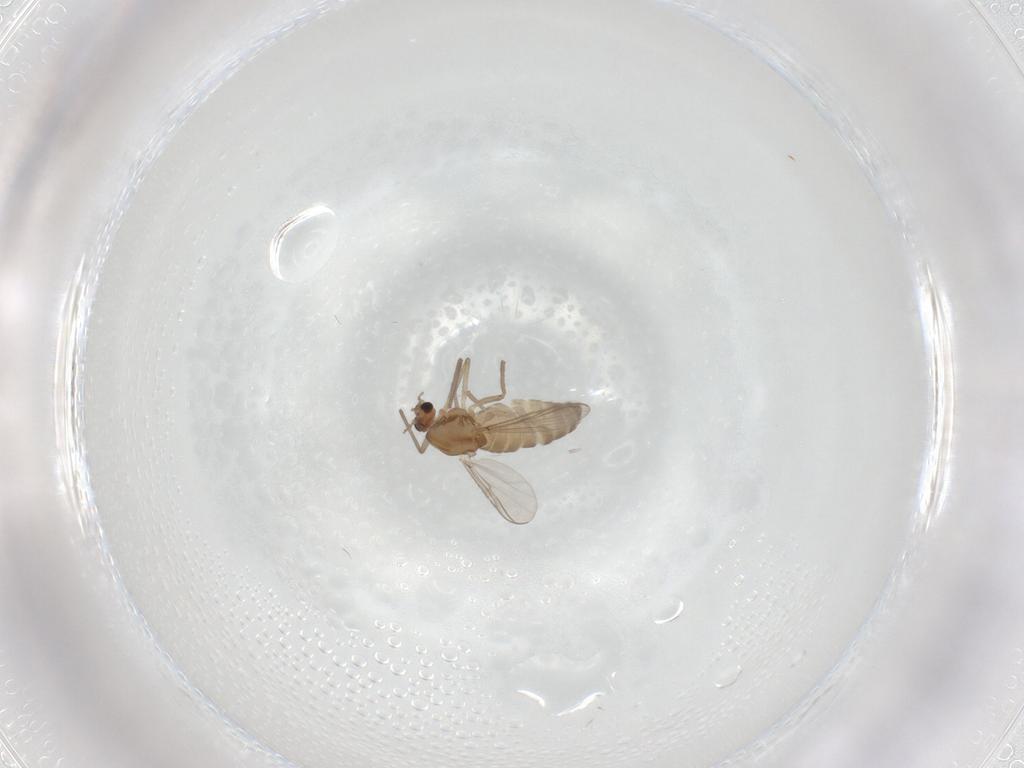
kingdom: Animalia
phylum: Arthropoda
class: Insecta
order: Diptera
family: Chironomidae
